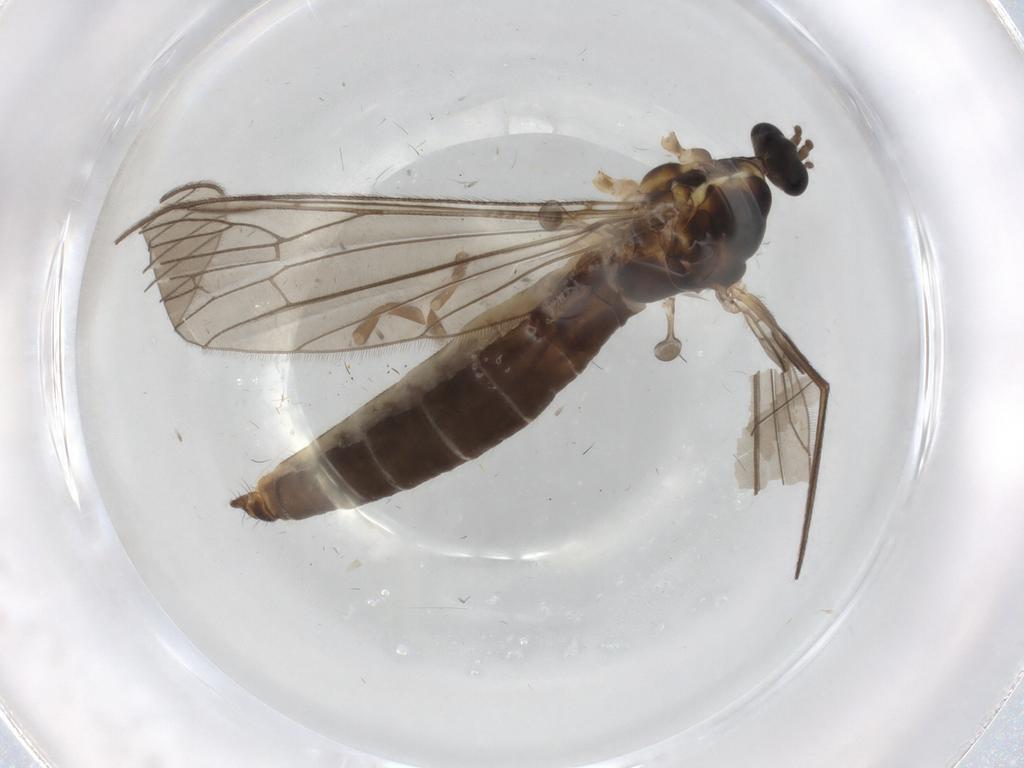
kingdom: Animalia
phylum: Arthropoda
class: Insecta
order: Diptera
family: Limoniidae
